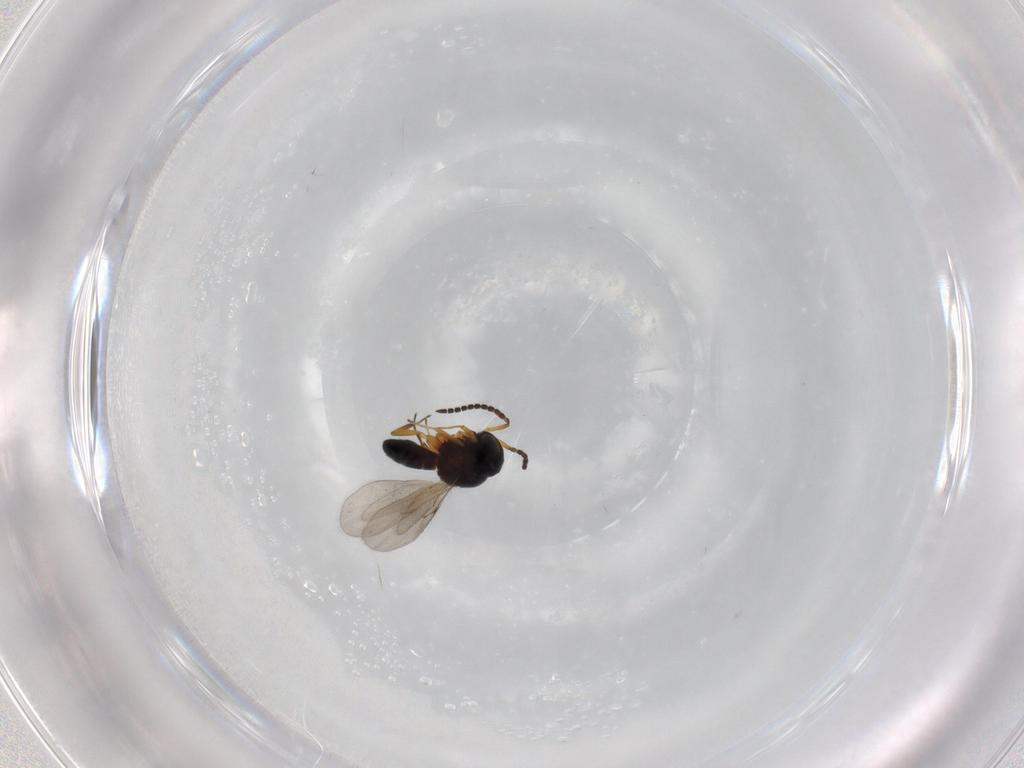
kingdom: Animalia
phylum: Arthropoda
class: Insecta
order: Hymenoptera
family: Scelionidae
